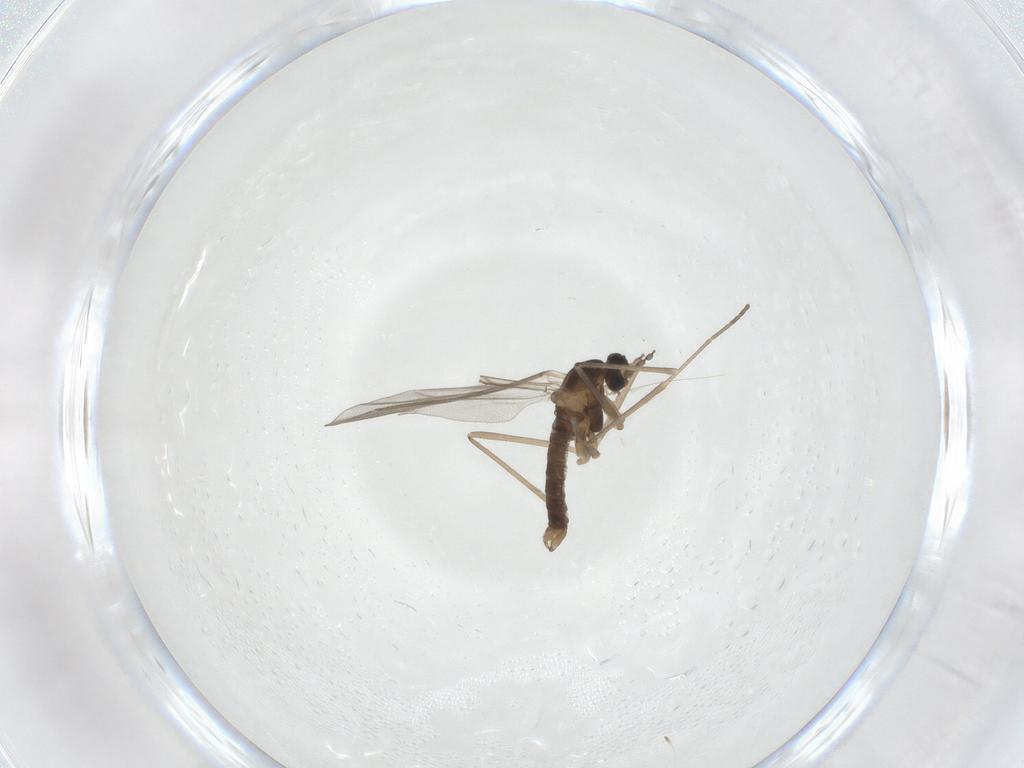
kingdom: Animalia
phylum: Arthropoda
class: Insecta
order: Diptera
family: Cecidomyiidae
